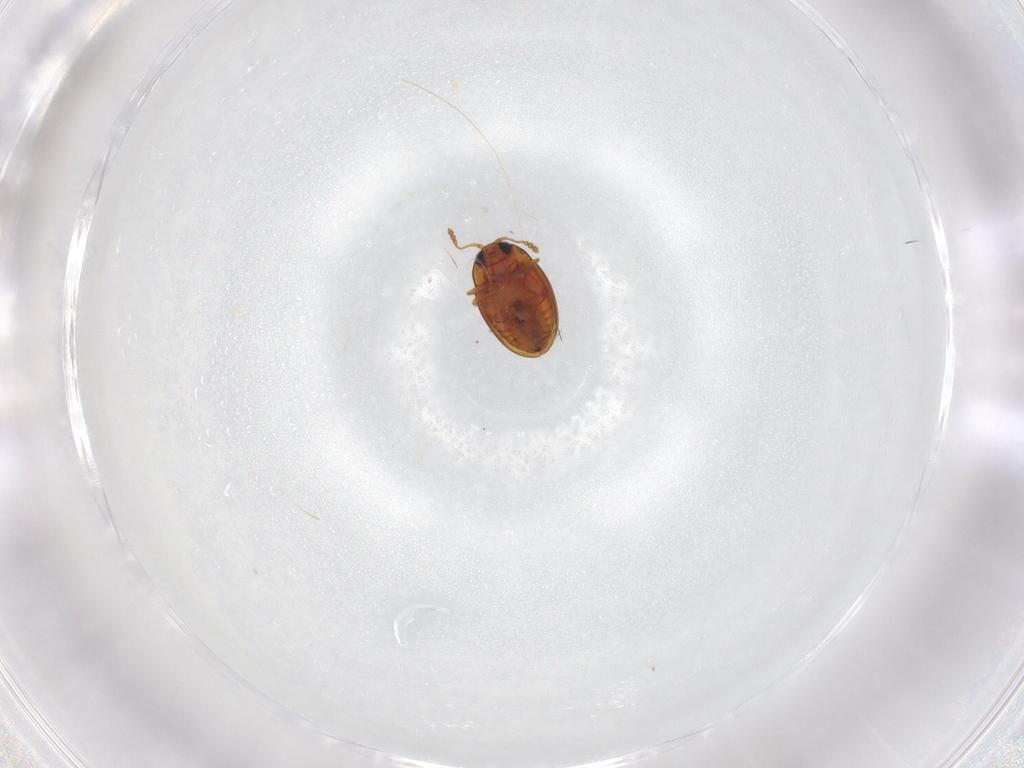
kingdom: Animalia
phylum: Arthropoda
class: Insecta
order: Coleoptera
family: Cryptophagidae
